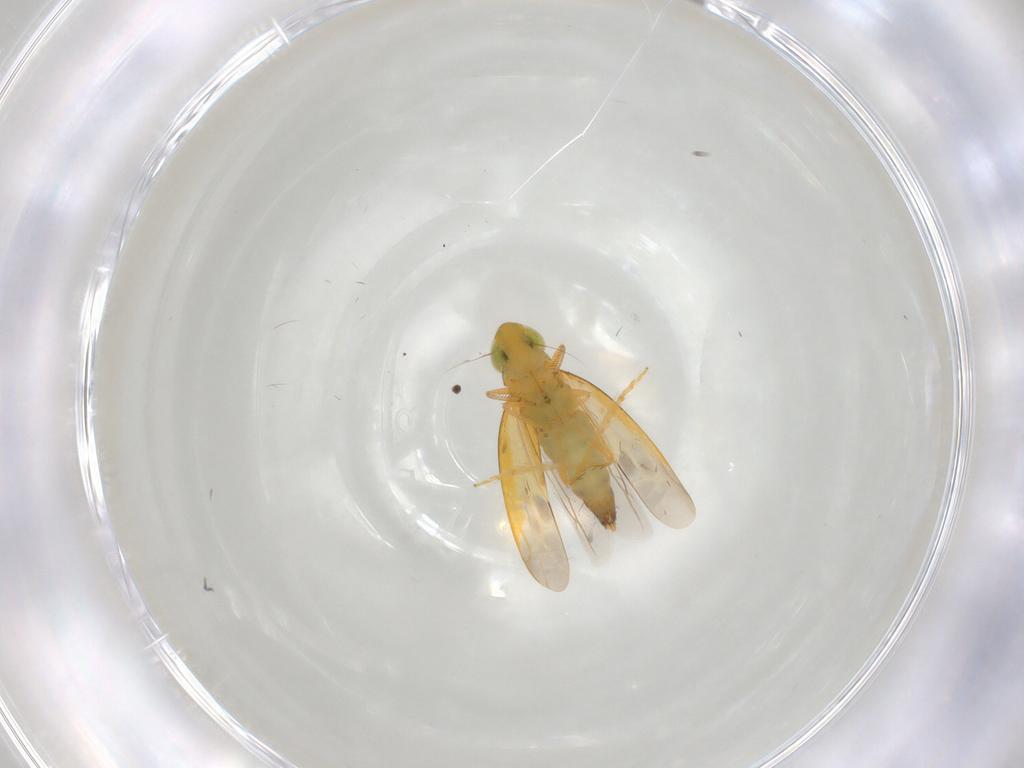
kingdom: Animalia
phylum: Arthropoda
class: Insecta
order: Hemiptera
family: Cicadellidae
